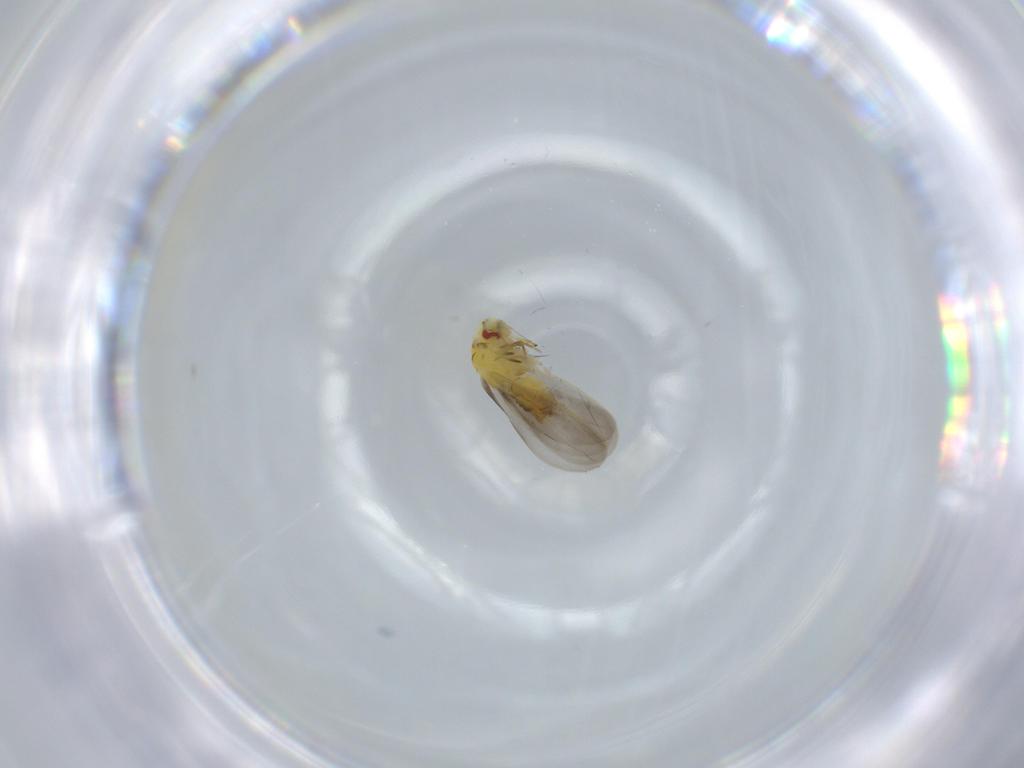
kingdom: Animalia
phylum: Arthropoda
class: Insecta
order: Hemiptera
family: Aleyrodidae
